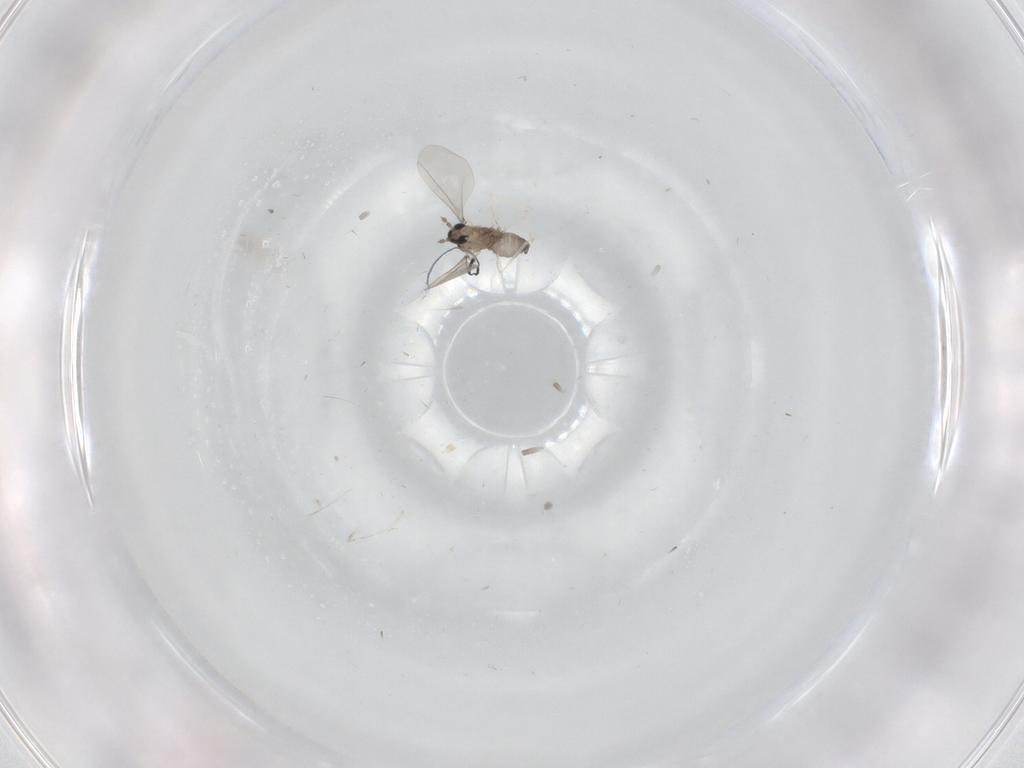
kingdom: Animalia
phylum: Arthropoda
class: Insecta
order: Diptera
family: Cecidomyiidae
